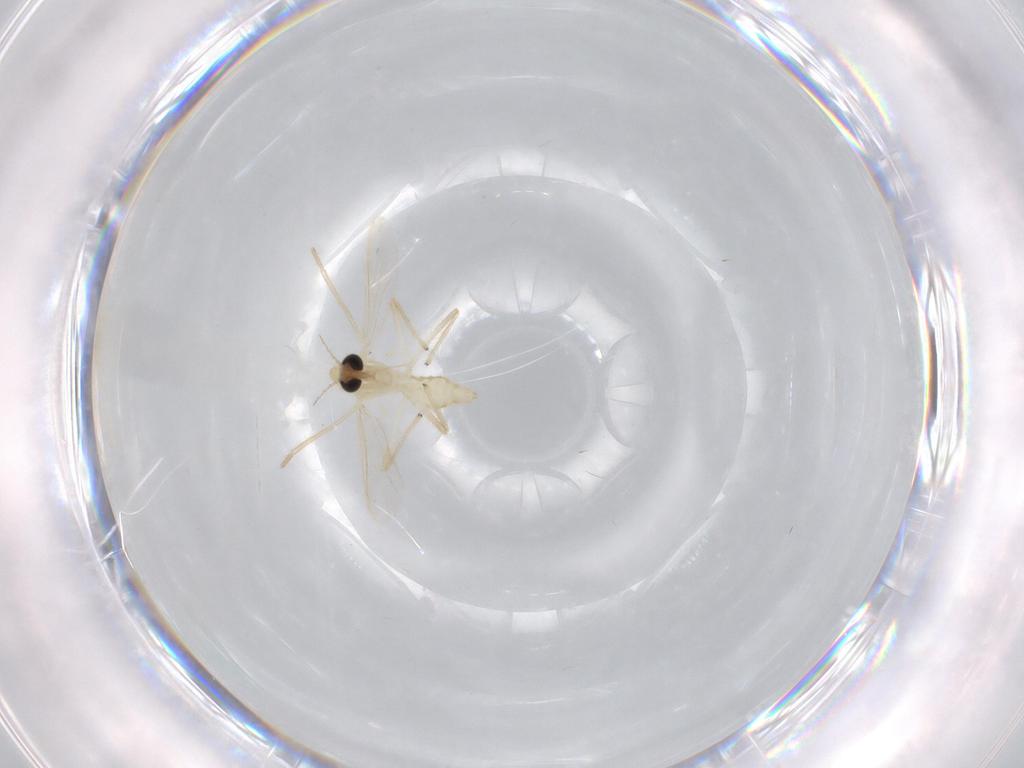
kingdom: Animalia
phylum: Arthropoda
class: Insecta
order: Diptera
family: Chironomidae
